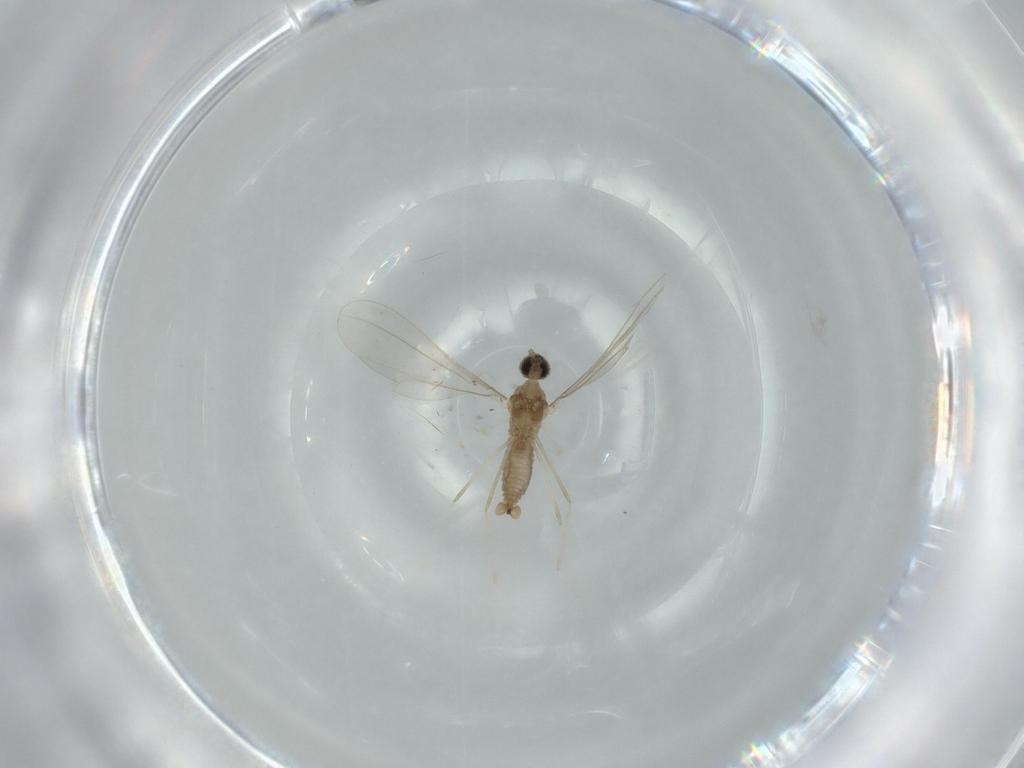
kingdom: Animalia
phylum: Arthropoda
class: Insecta
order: Diptera
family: Cecidomyiidae
